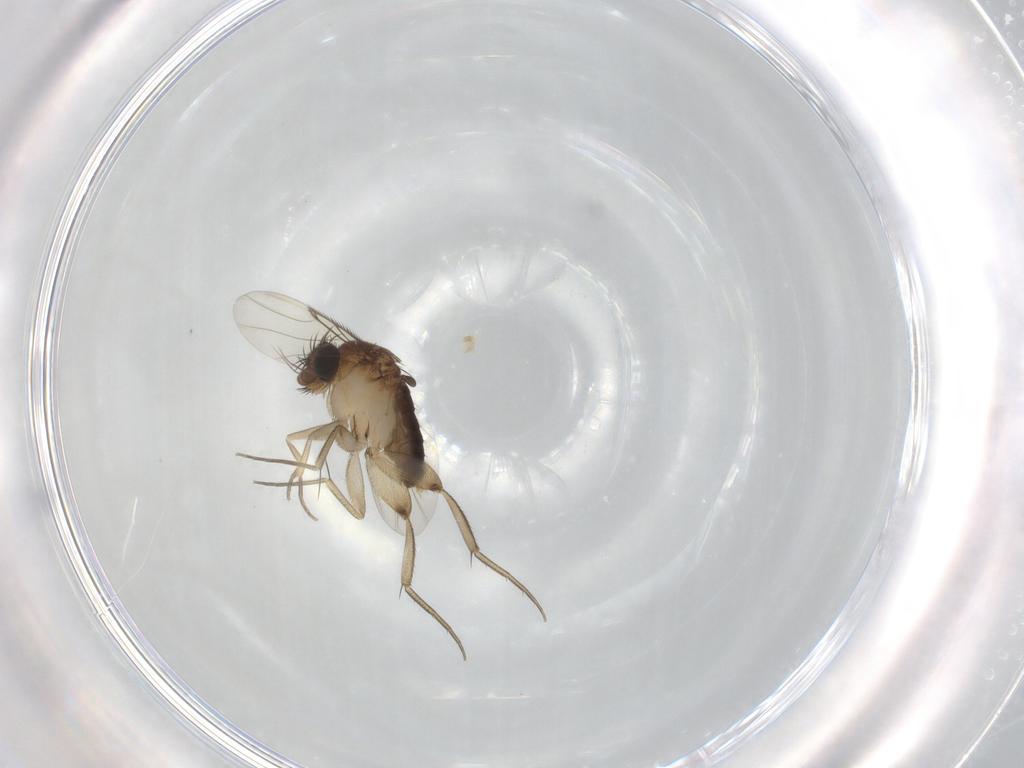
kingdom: Animalia
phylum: Arthropoda
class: Insecta
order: Diptera
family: Phoridae
